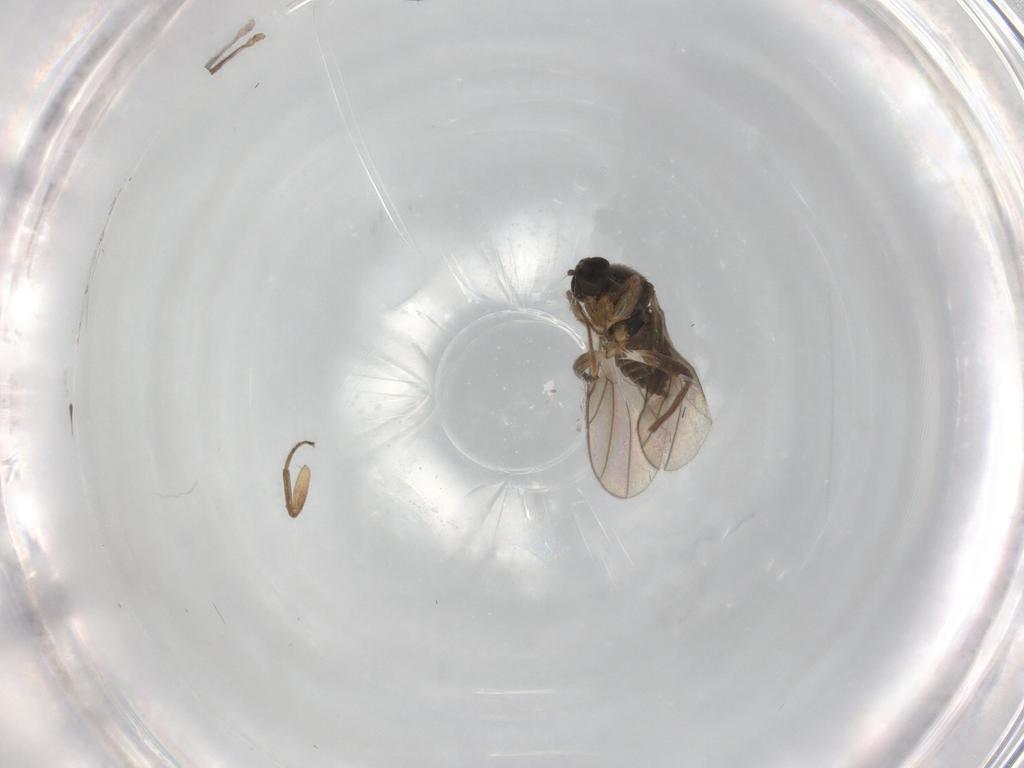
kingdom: Animalia
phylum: Arthropoda
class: Insecta
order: Diptera
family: Hybotidae
